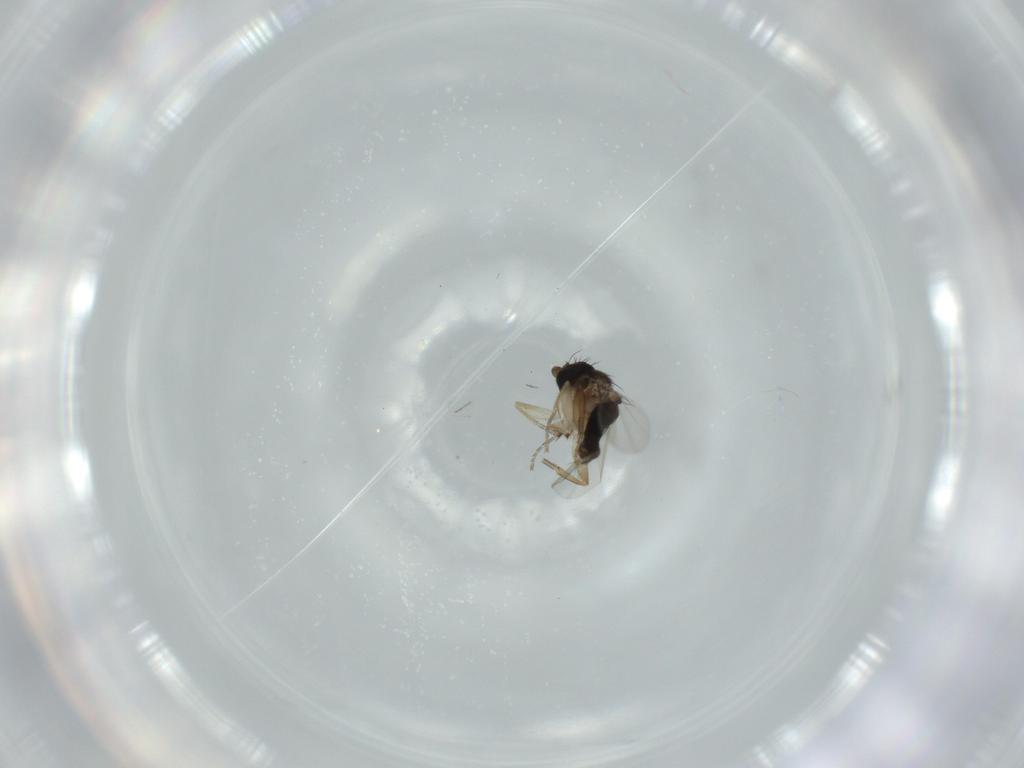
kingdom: Animalia
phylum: Arthropoda
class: Insecta
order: Diptera
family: Phoridae
